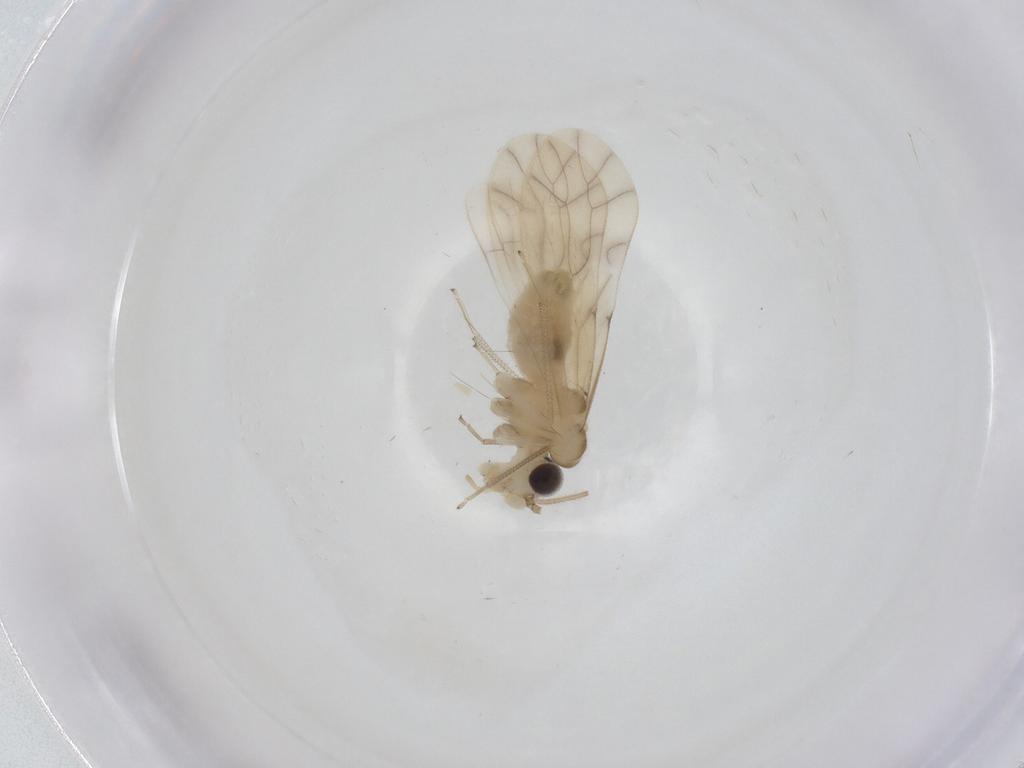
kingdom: Animalia
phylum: Arthropoda
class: Insecta
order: Psocodea
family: Caeciliusidae
